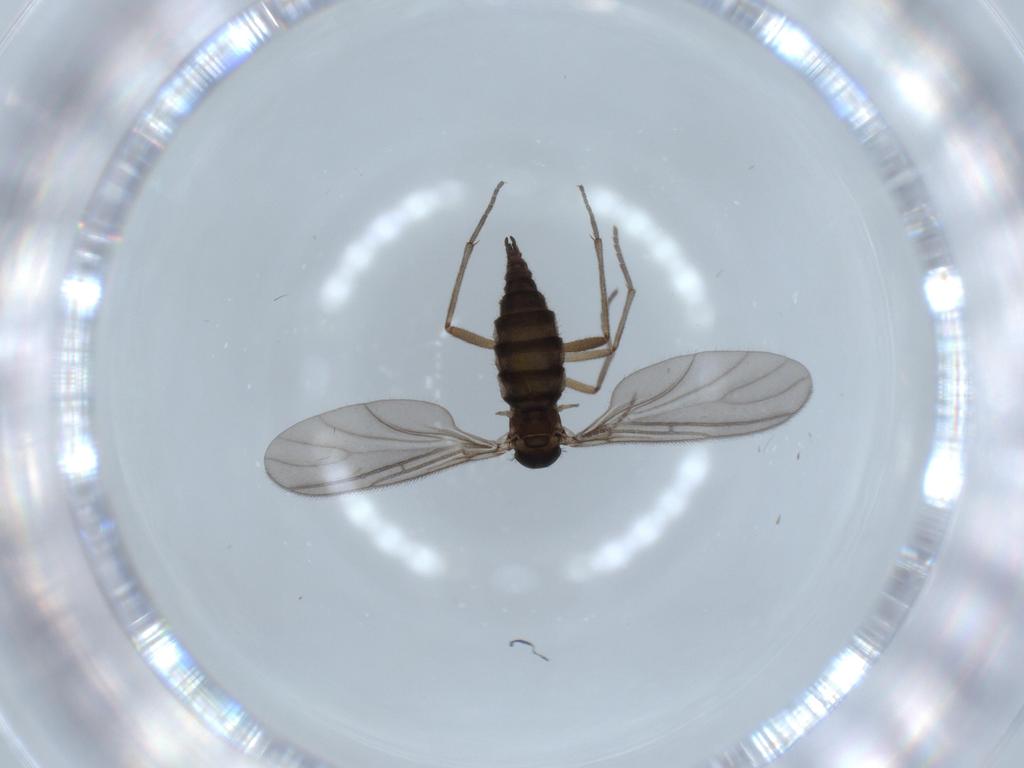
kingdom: Animalia
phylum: Arthropoda
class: Insecta
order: Diptera
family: Sciaridae
